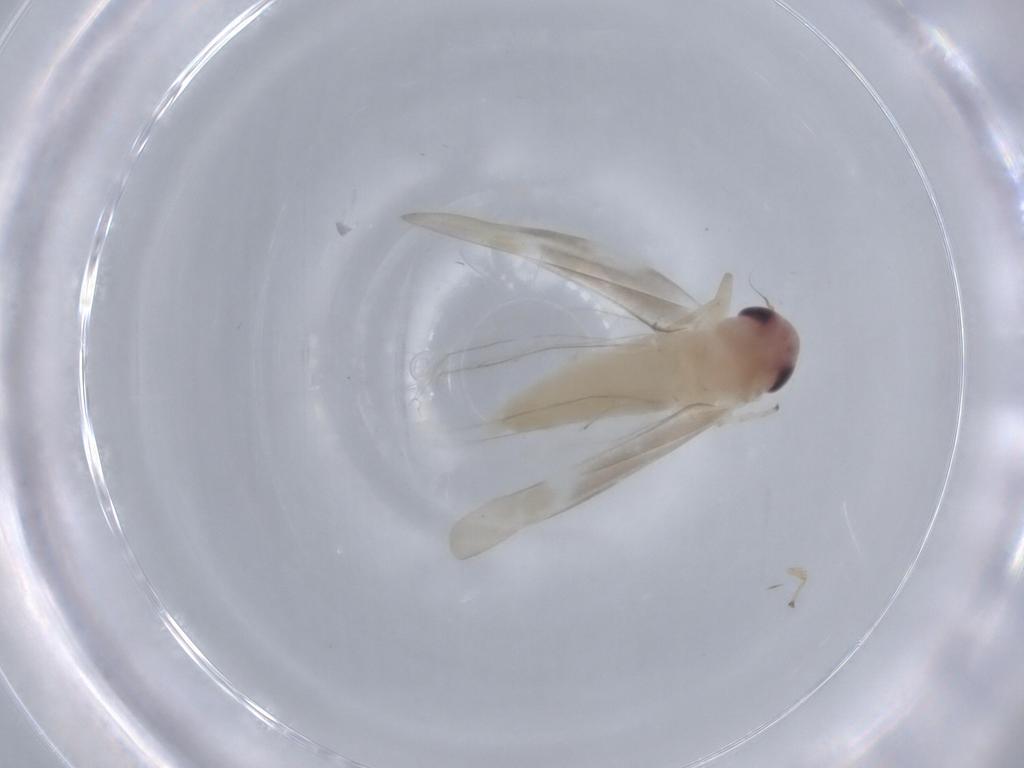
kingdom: Animalia
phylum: Arthropoda
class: Insecta
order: Hemiptera
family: Cicadellidae
